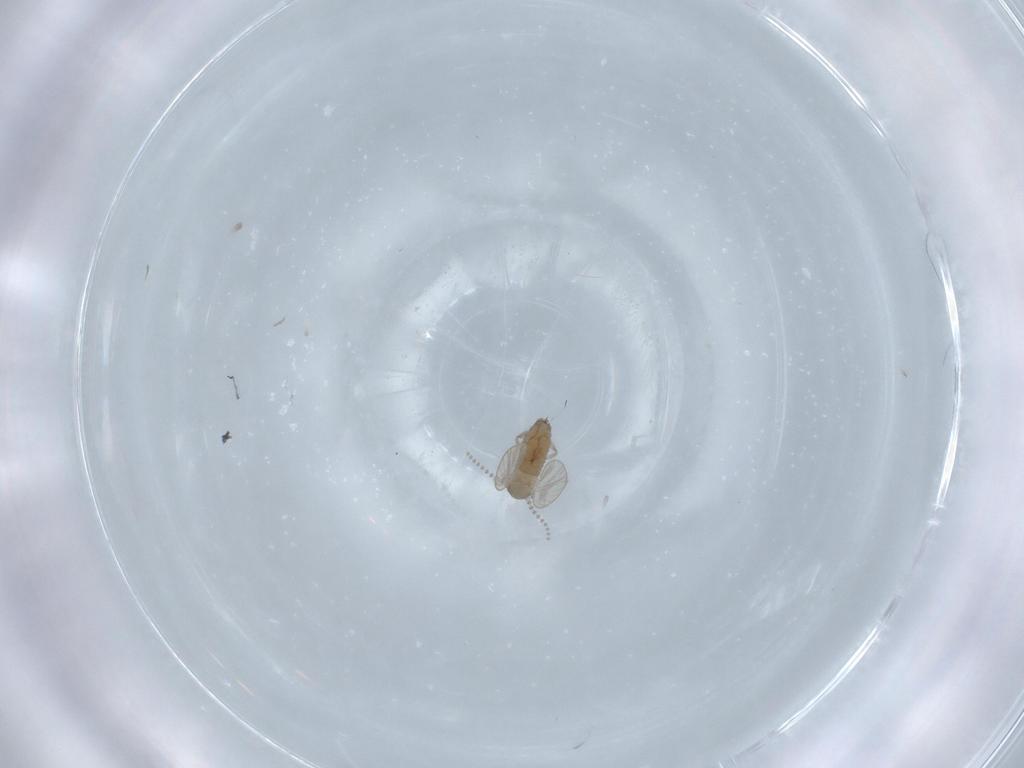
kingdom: Animalia
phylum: Arthropoda
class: Insecta
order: Diptera
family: Psychodidae
